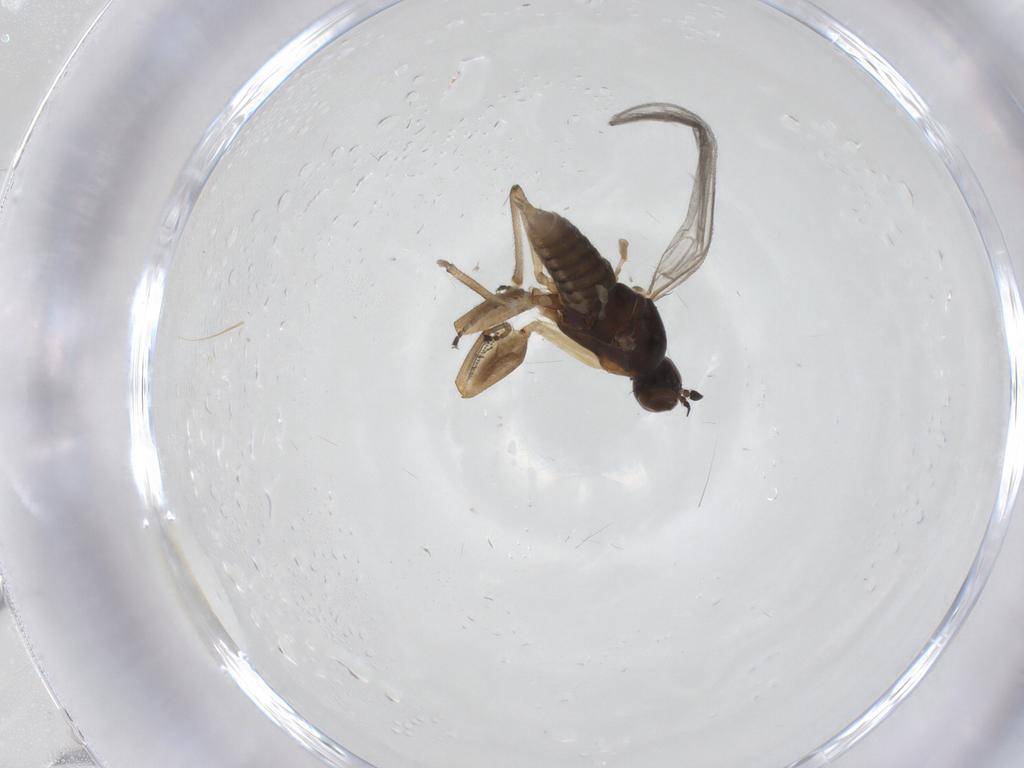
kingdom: Animalia
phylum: Arthropoda
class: Insecta
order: Diptera
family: Empididae
